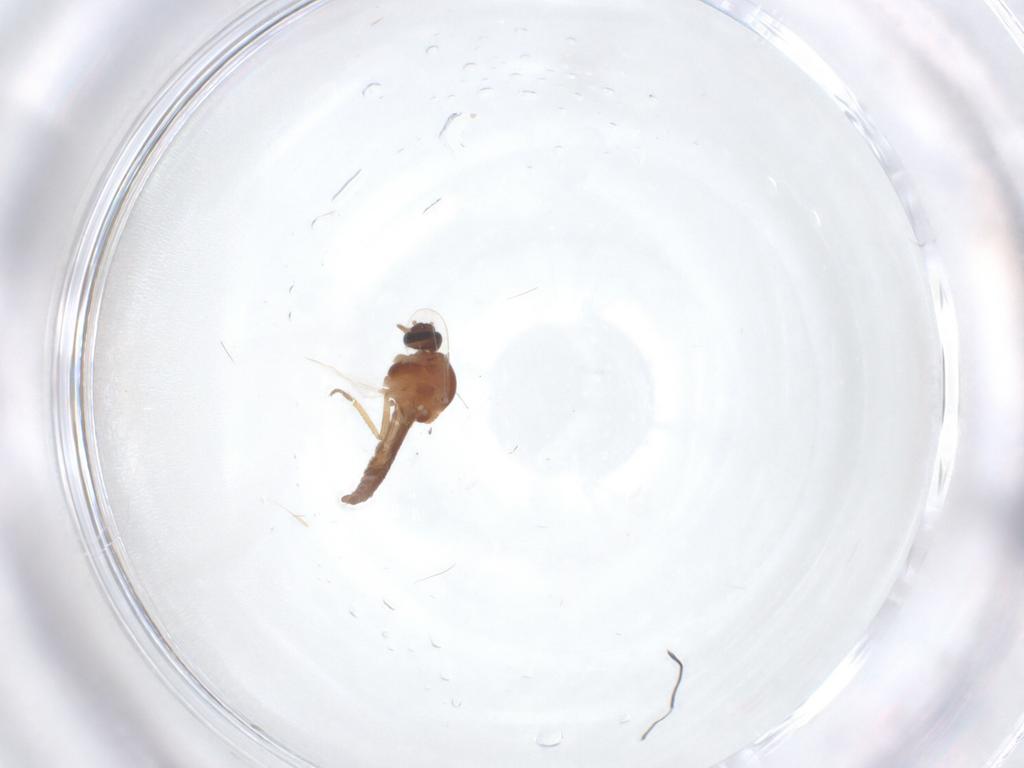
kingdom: Animalia
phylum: Arthropoda
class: Insecta
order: Diptera
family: Ceratopogonidae
